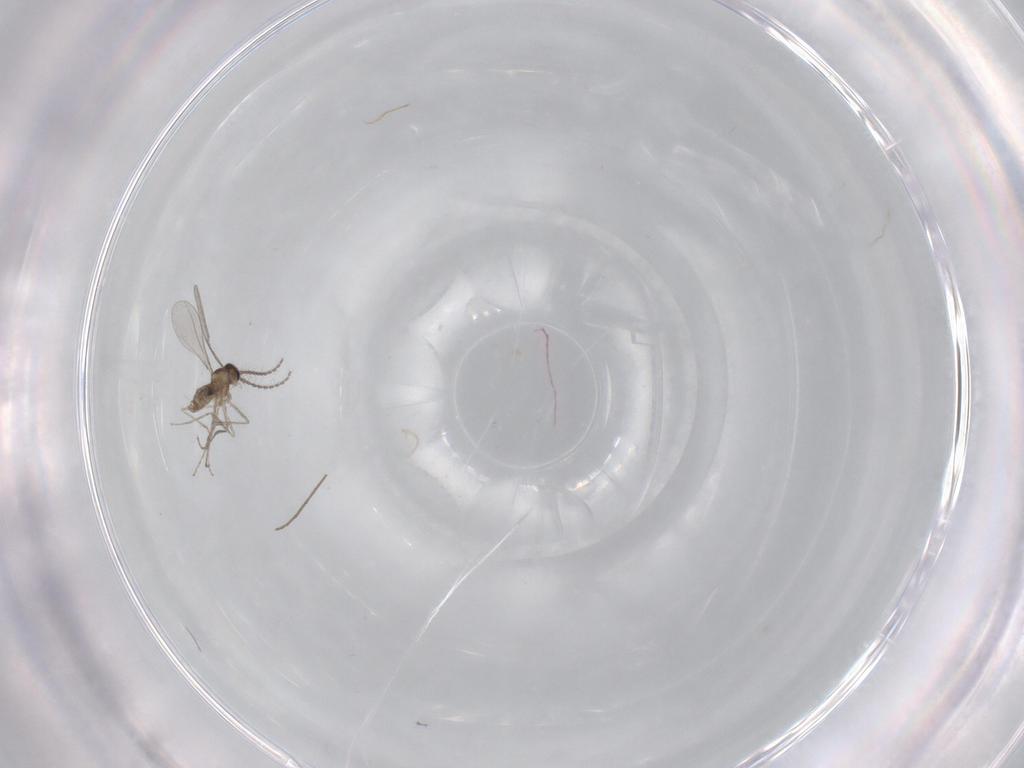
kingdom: Animalia
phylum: Arthropoda
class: Insecta
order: Diptera
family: Chironomidae
